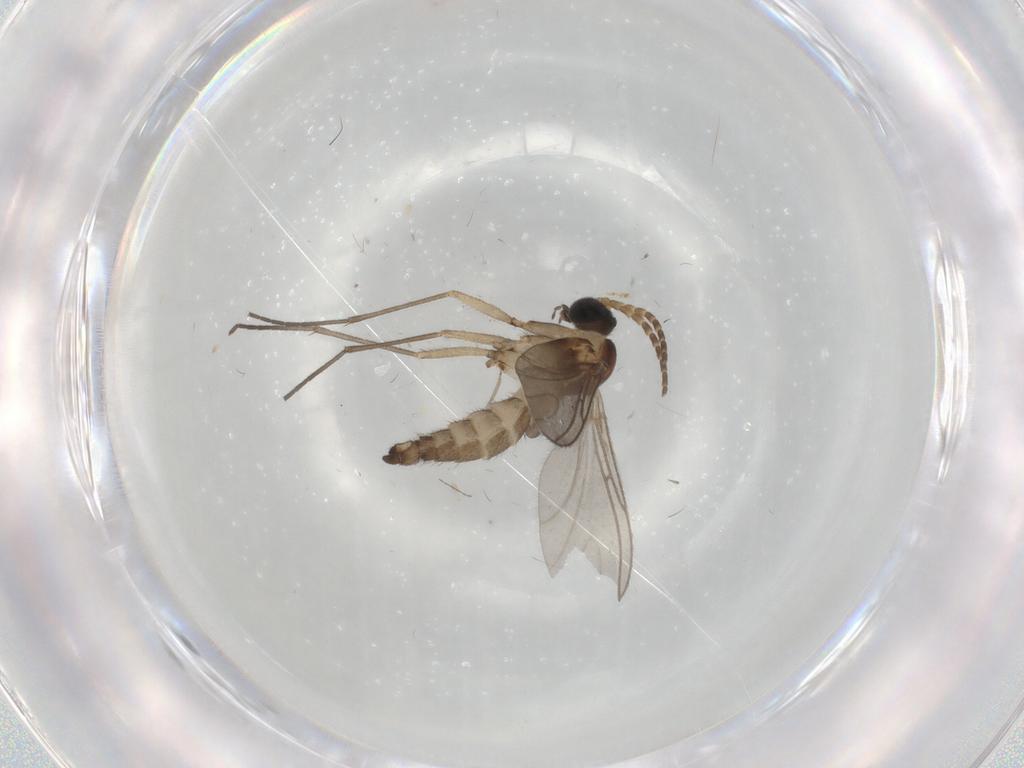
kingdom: Animalia
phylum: Arthropoda
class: Insecta
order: Diptera
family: Sciaridae
